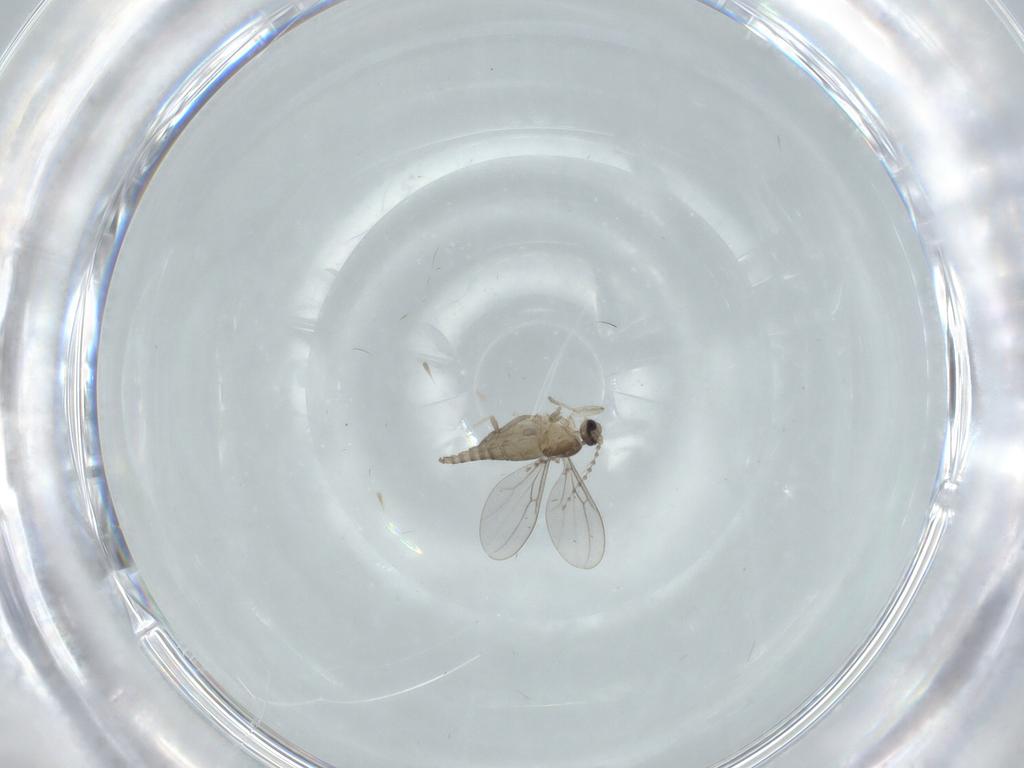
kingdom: Animalia
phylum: Arthropoda
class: Insecta
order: Diptera
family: Cecidomyiidae
